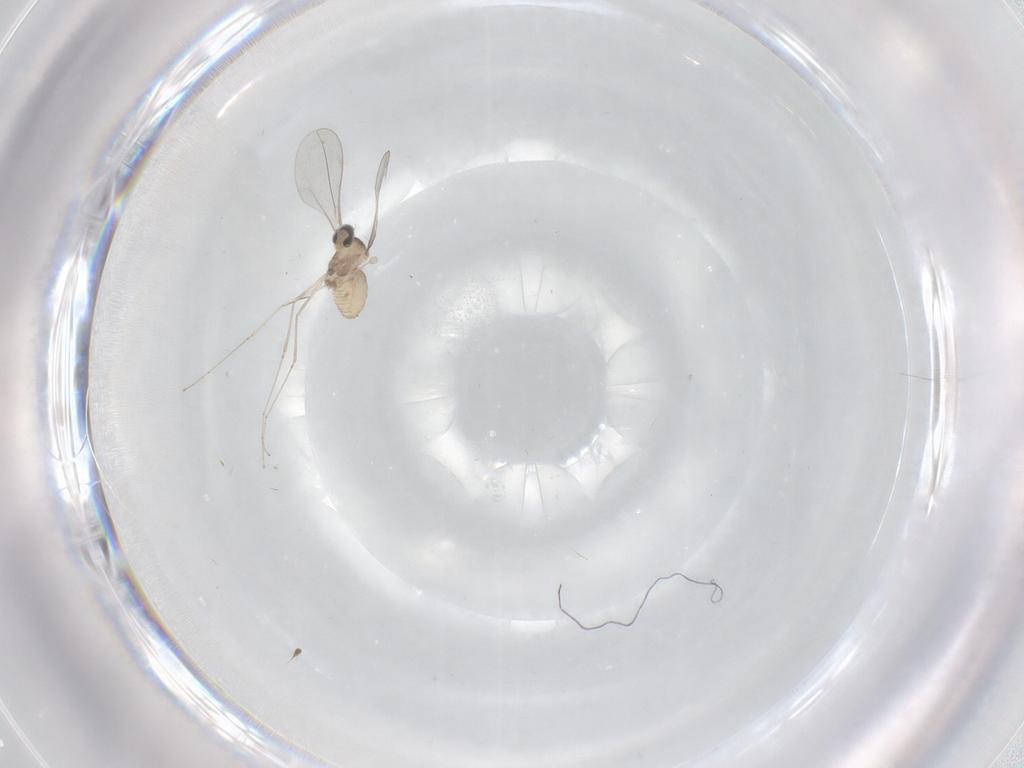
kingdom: Animalia
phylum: Arthropoda
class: Insecta
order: Diptera
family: Cecidomyiidae
